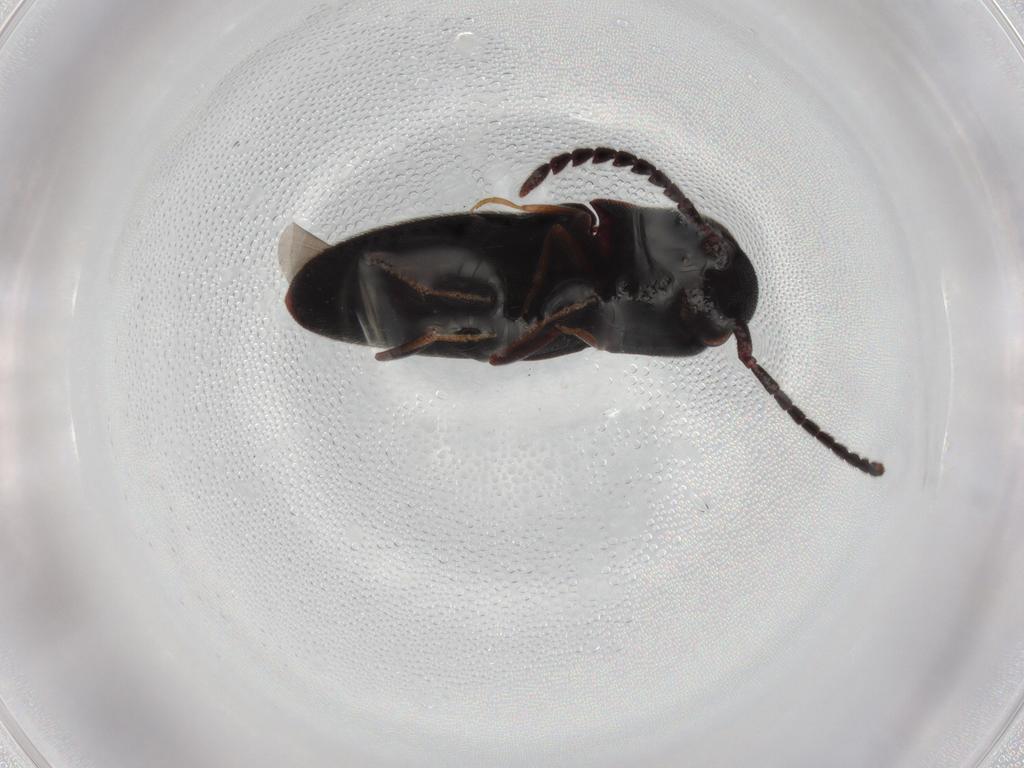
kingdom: Animalia
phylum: Arthropoda
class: Insecta
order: Coleoptera
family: Eucnemidae
